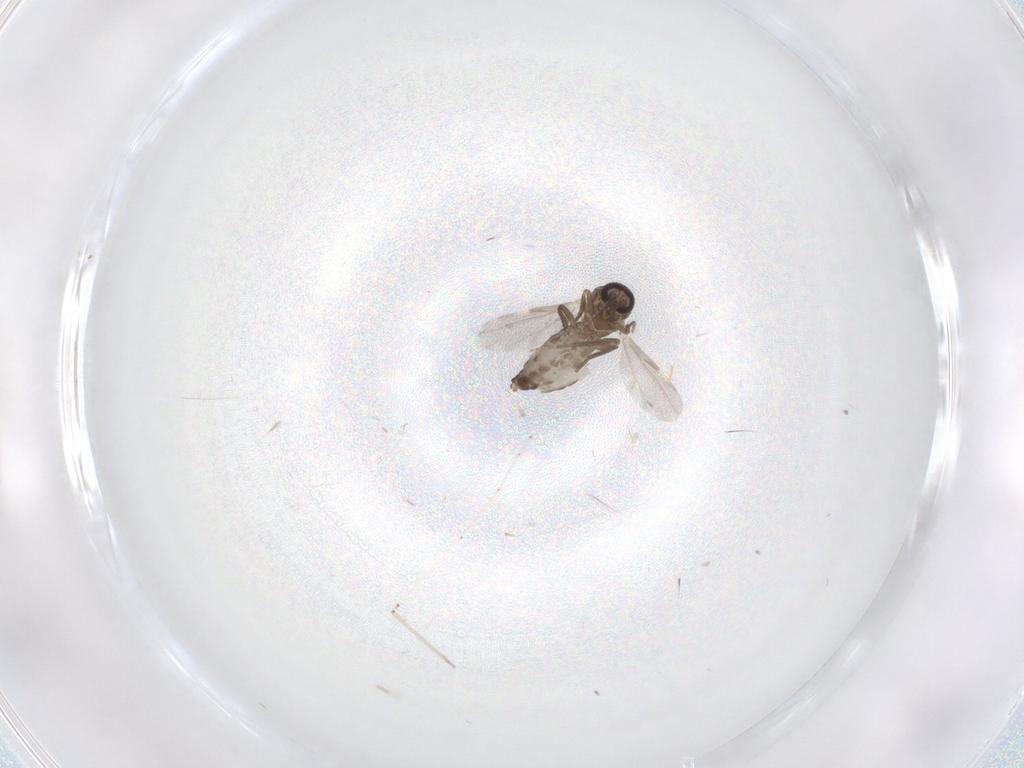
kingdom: Animalia
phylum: Arthropoda
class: Insecta
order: Diptera
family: Ceratopogonidae
